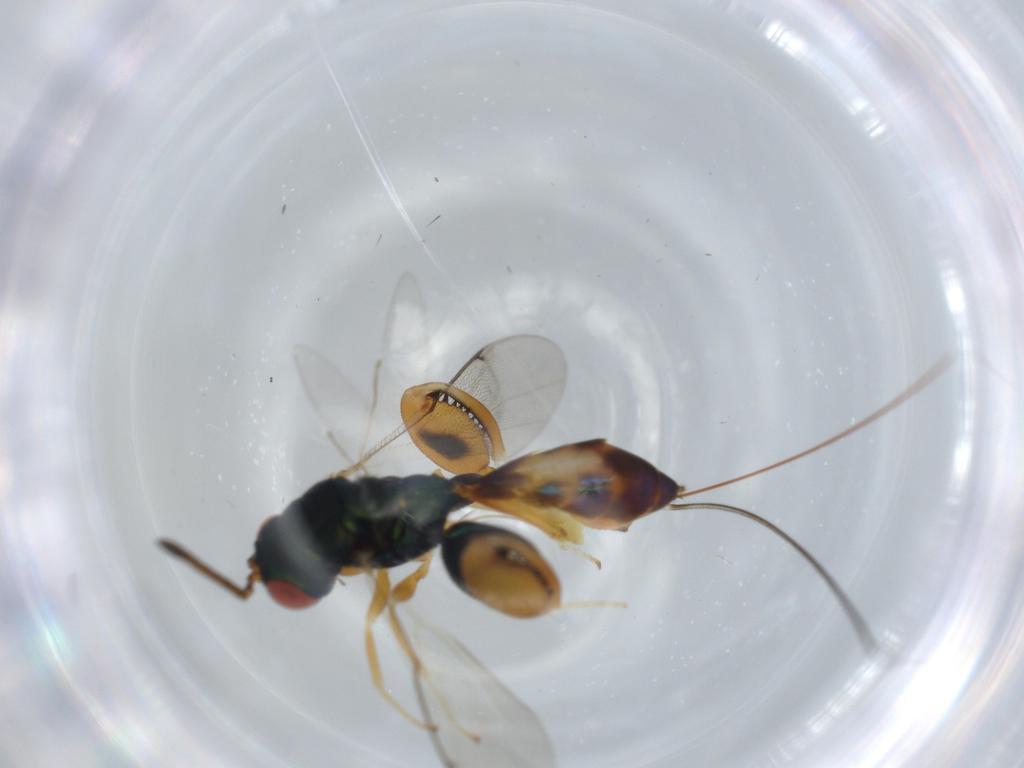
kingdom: Animalia
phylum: Arthropoda
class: Insecta
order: Hymenoptera
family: Torymidae
